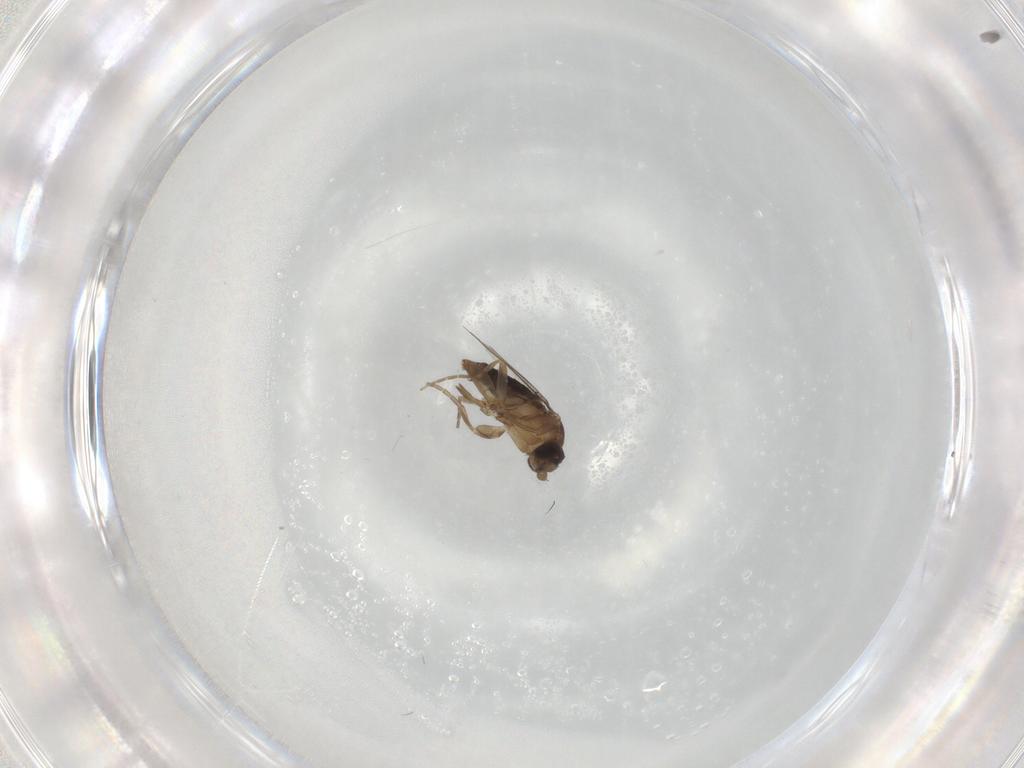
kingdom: Animalia
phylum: Arthropoda
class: Insecta
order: Diptera
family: Phoridae
